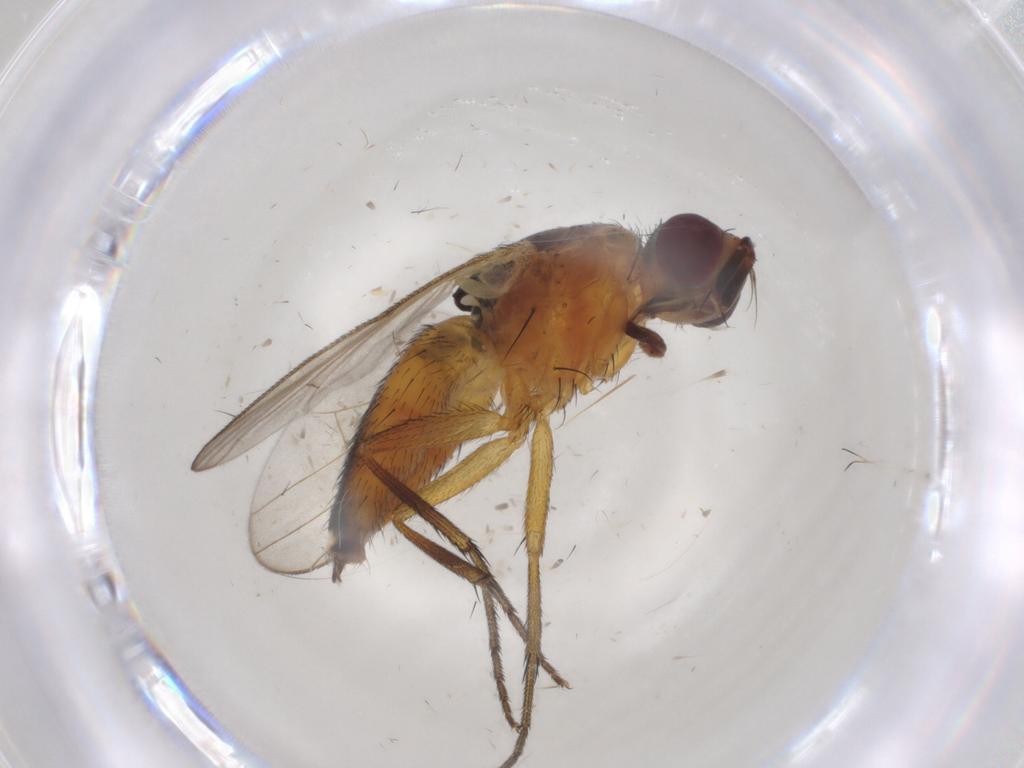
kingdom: Animalia
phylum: Arthropoda
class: Insecta
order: Diptera
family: Muscidae
